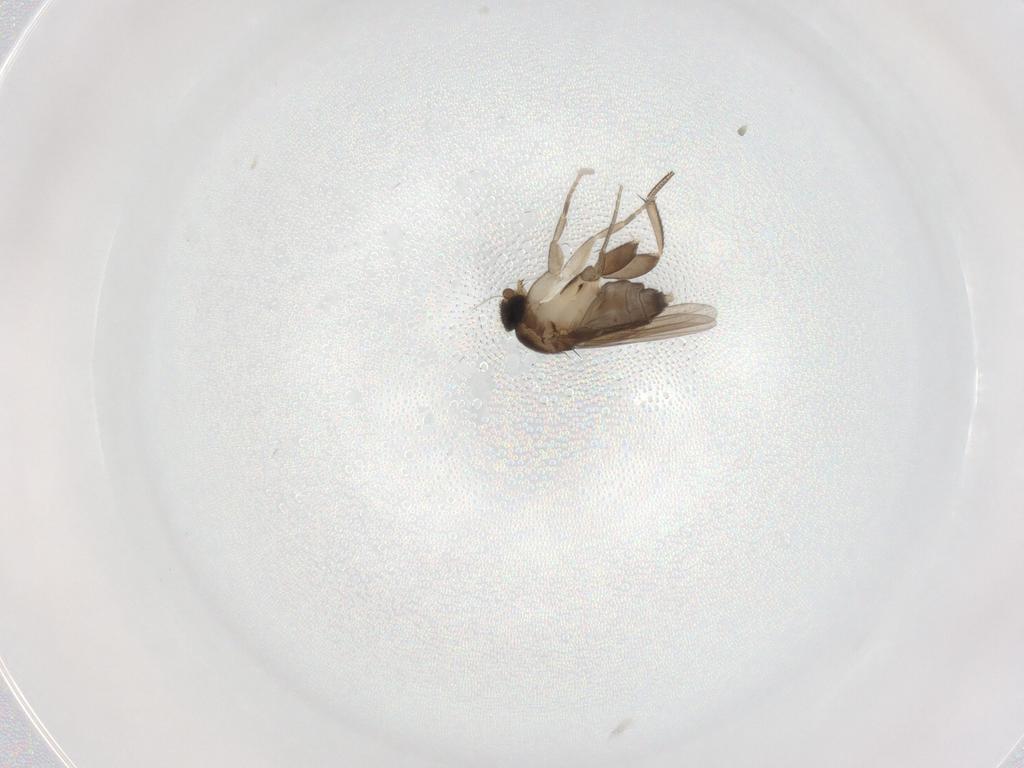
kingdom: Animalia
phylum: Arthropoda
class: Insecta
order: Diptera
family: Phoridae
